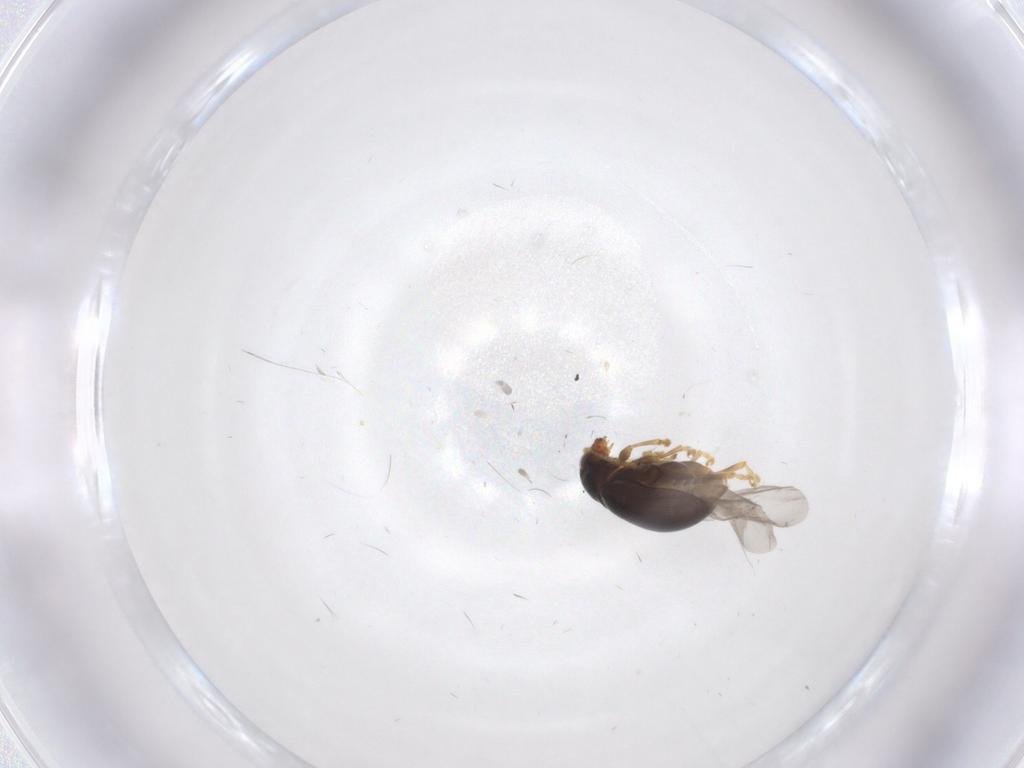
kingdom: Animalia
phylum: Arthropoda
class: Insecta
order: Coleoptera
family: Chrysomelidae
